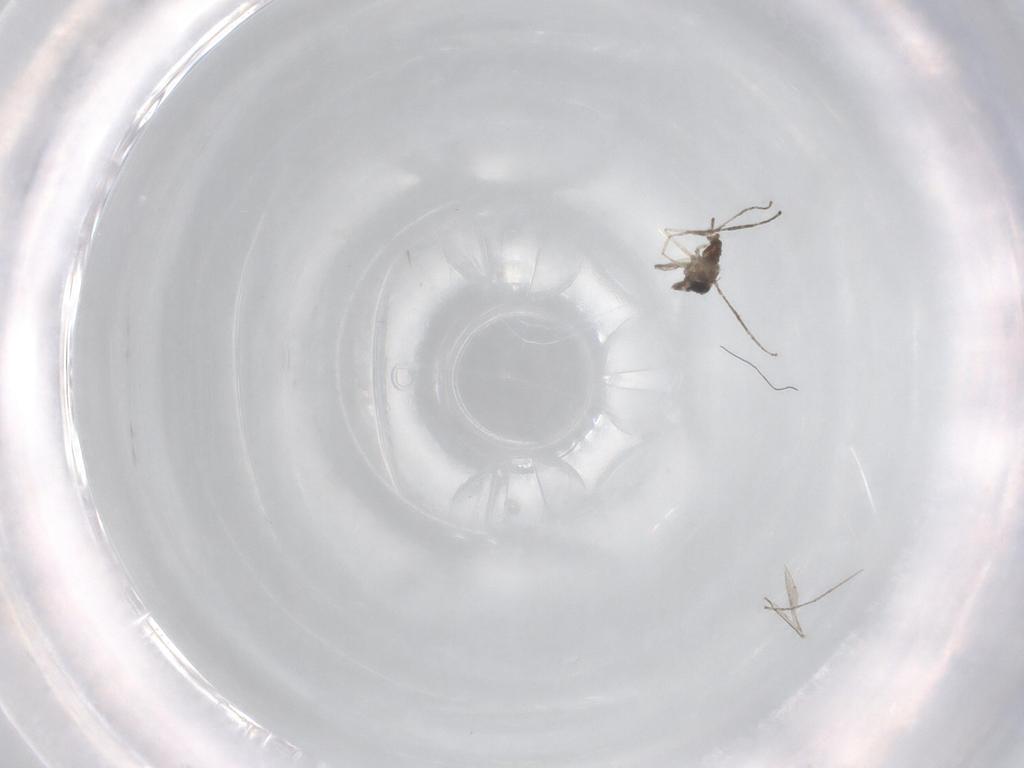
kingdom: Animalia
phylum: Arthropoda
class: Insecta
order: Diptera
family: Cecidomyiidae
